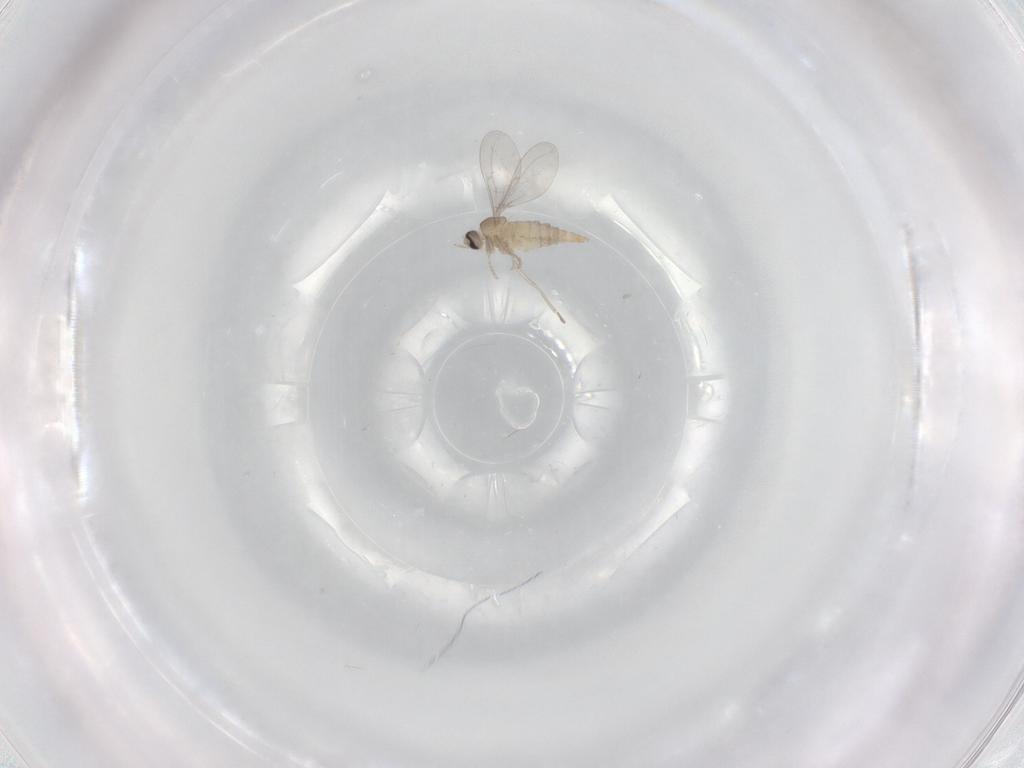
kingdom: Animalia
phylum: Arthropoda
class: Insecta
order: Diptera
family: Cecidomyiidae
